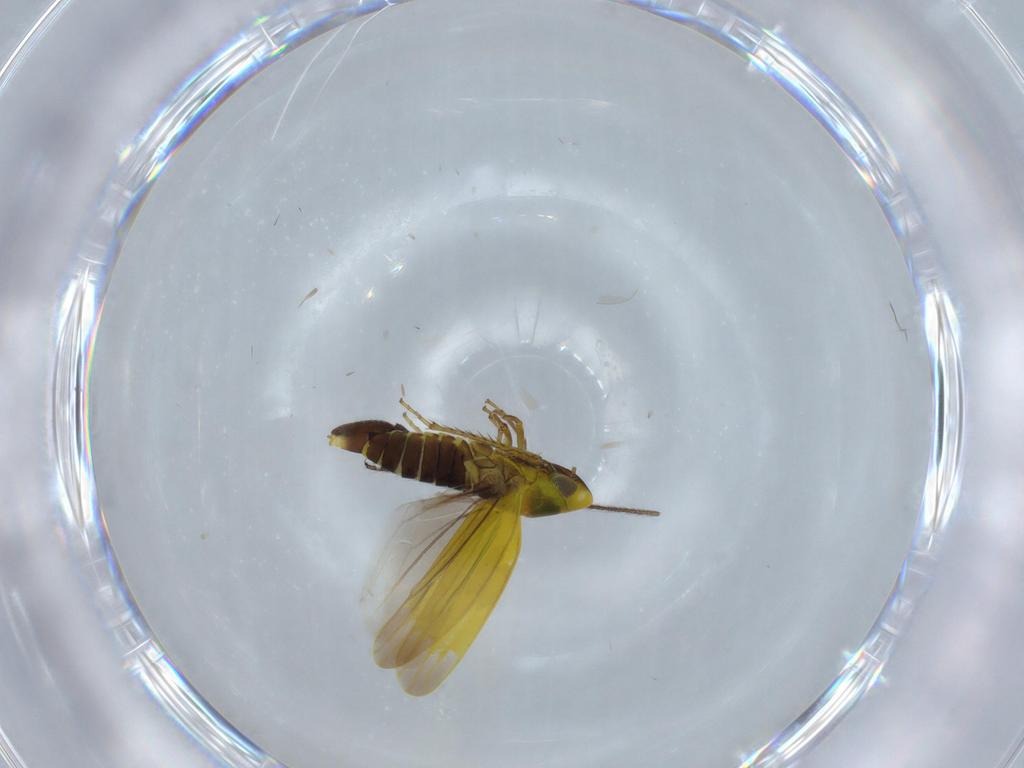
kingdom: Animalia
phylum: Arthropoda
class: Insecta
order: Hemiptera
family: Cicadellidae
